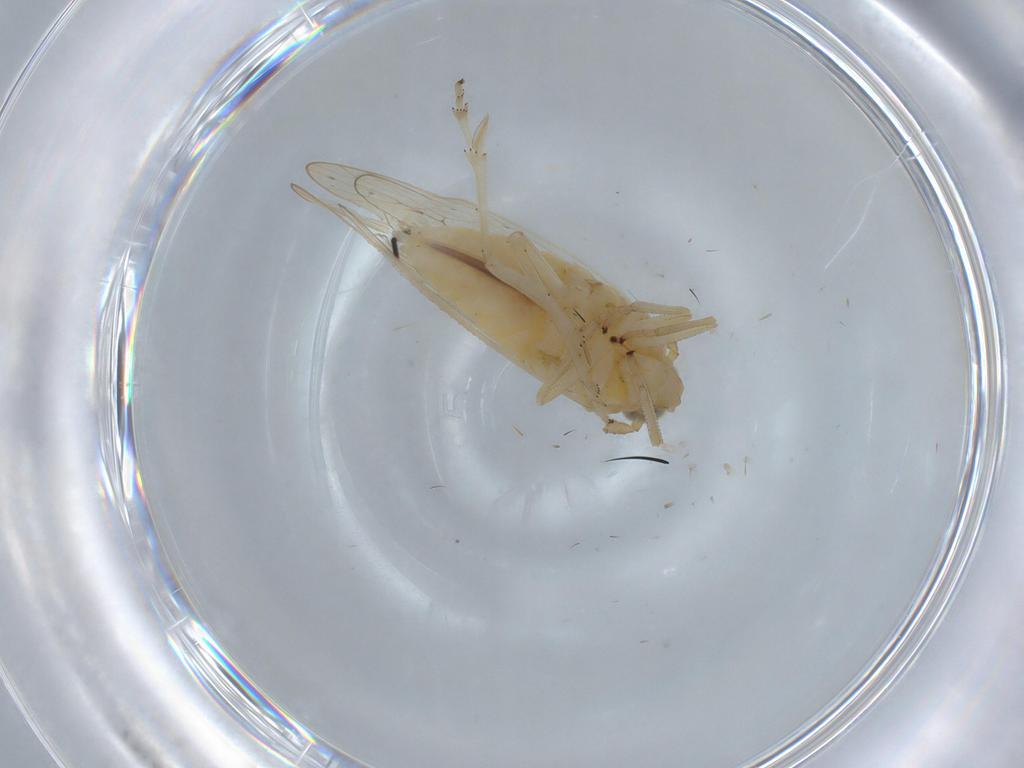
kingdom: Animalia
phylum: Arthropoda
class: Insecta
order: Hemiptera
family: Delphacidae
